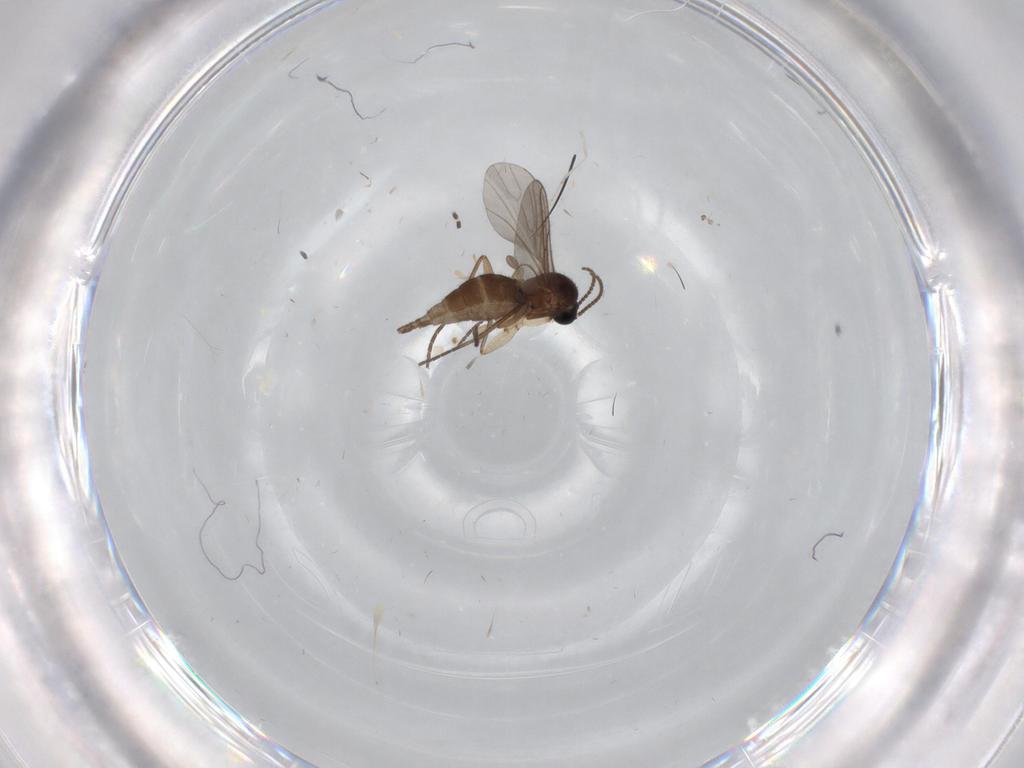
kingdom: Animalia
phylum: Arthropoda
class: Insecta
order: Diptera
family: Sciaridae
